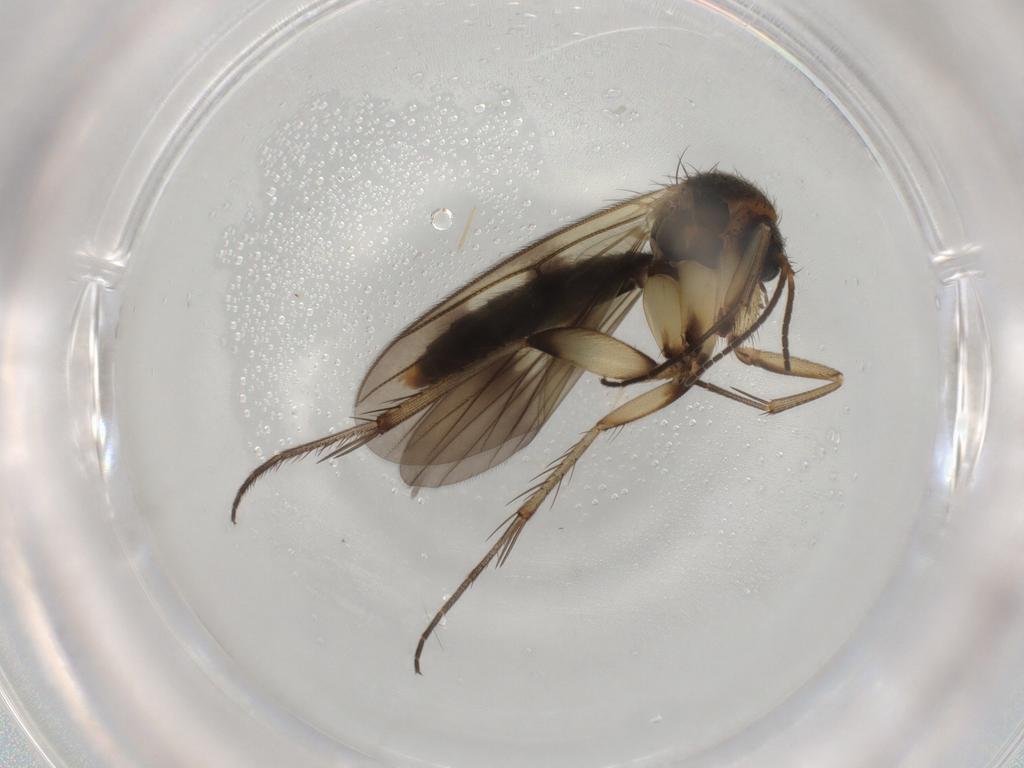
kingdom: Animalia
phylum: Arthropoda
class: Insecta
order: Diptera
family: Mycetophilidae
